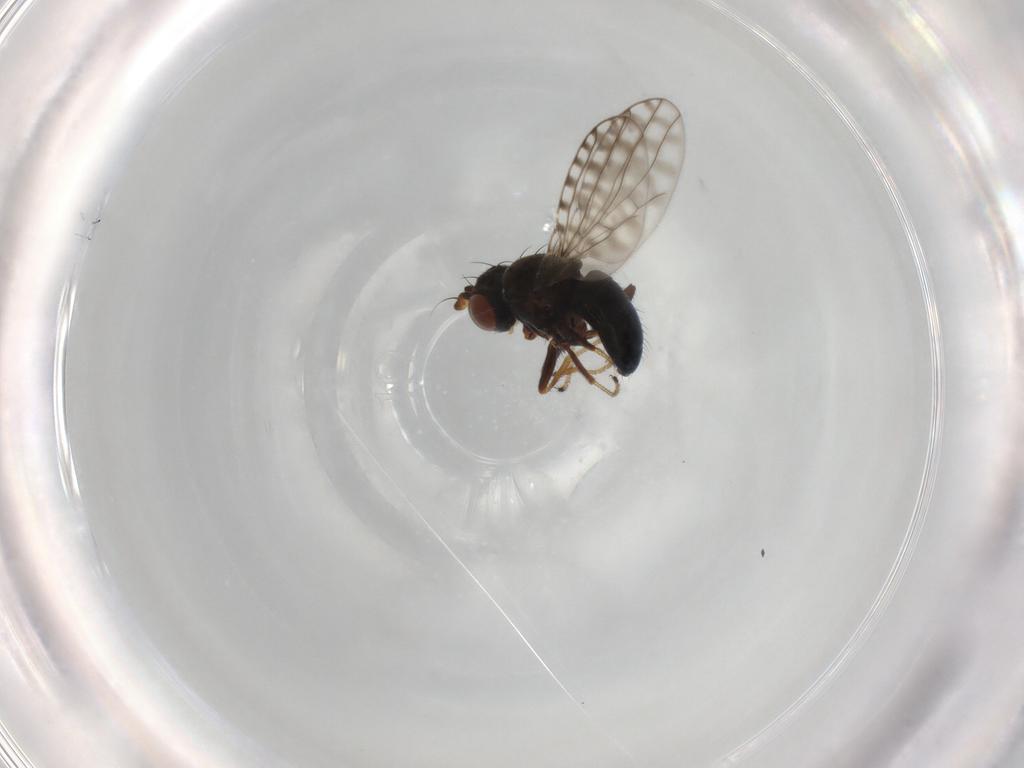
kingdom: Animalia
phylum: Arthropoda
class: Insecta
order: Diptera
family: Ephydridae
